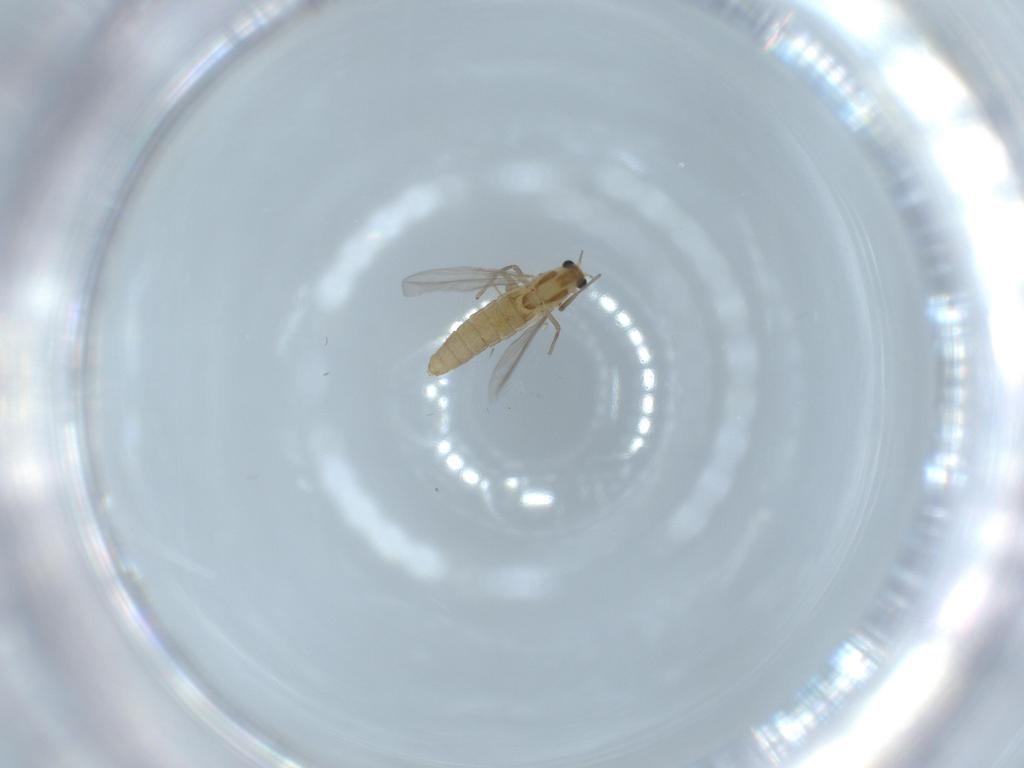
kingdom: Animalia
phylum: Arthropoda
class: Insecta
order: Diptera
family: Chironomidae
